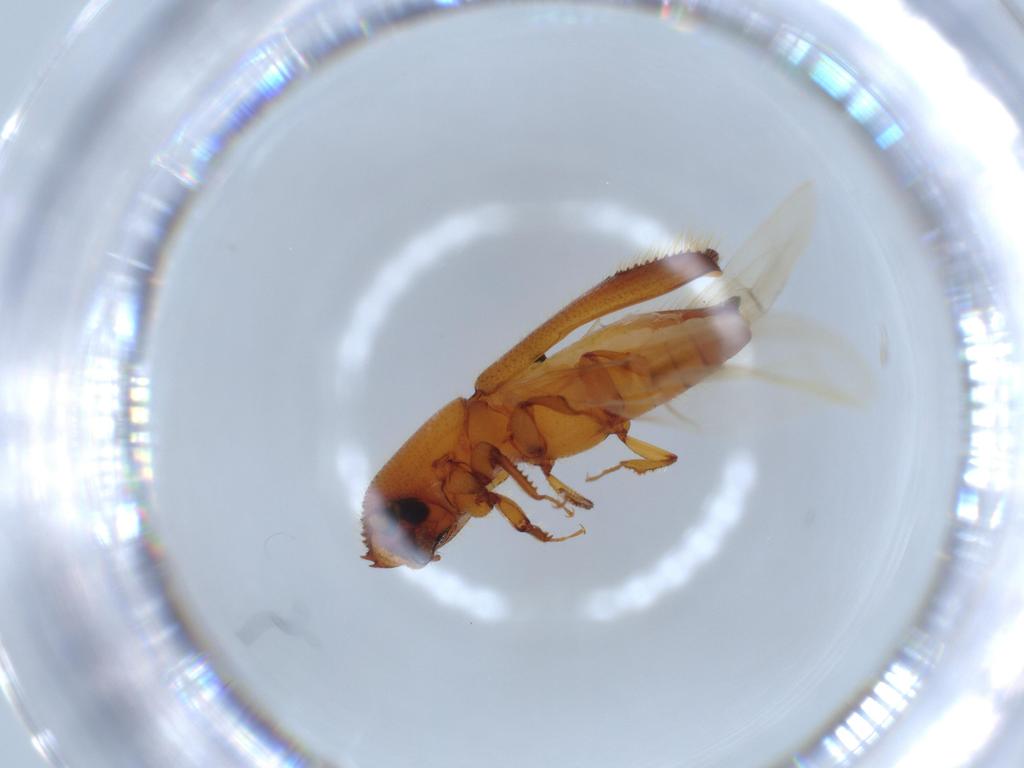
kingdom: Animalia
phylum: Arthropoda
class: Insecta
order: Coleoptera
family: Curculionidae
